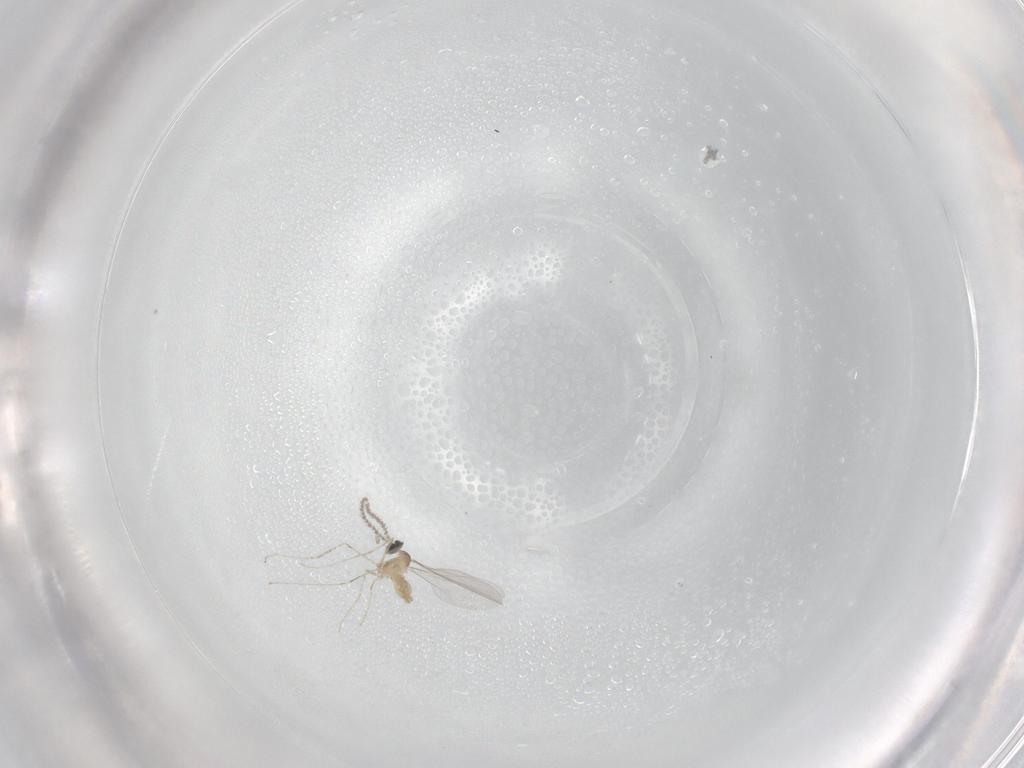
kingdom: Animalia
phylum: Arthropoda
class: Insecta
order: Diptera
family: Cecidomyiidae
